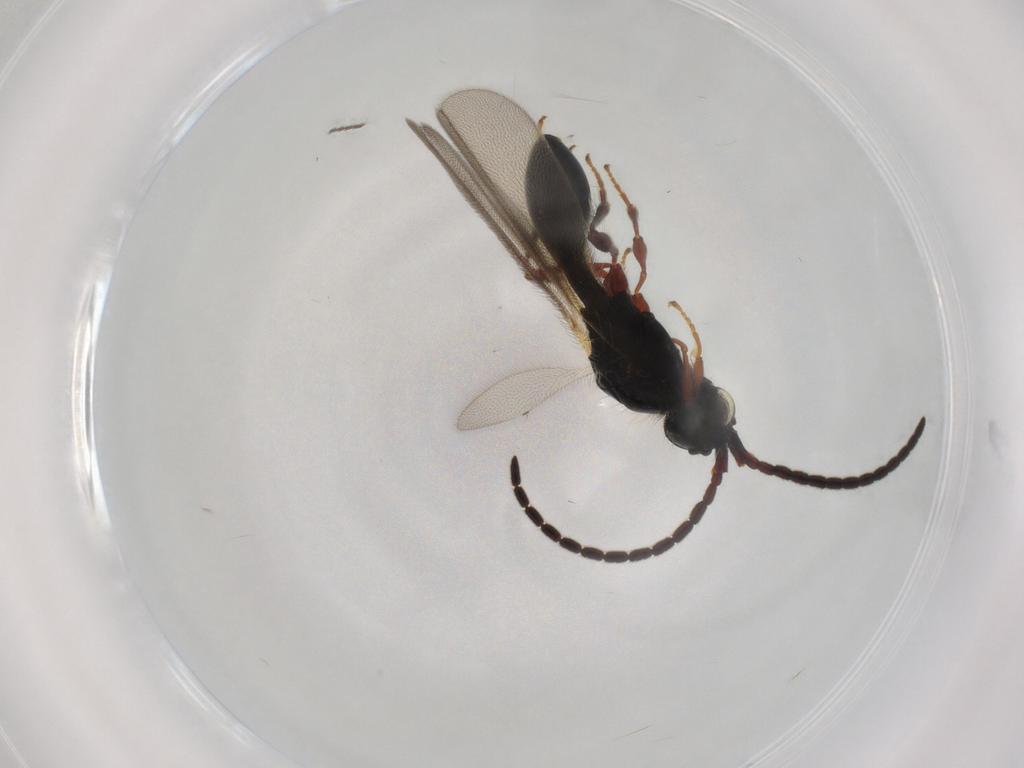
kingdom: Animalia
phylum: Arthropoda
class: Insecta
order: Hymenoptera
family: Diapriidae
